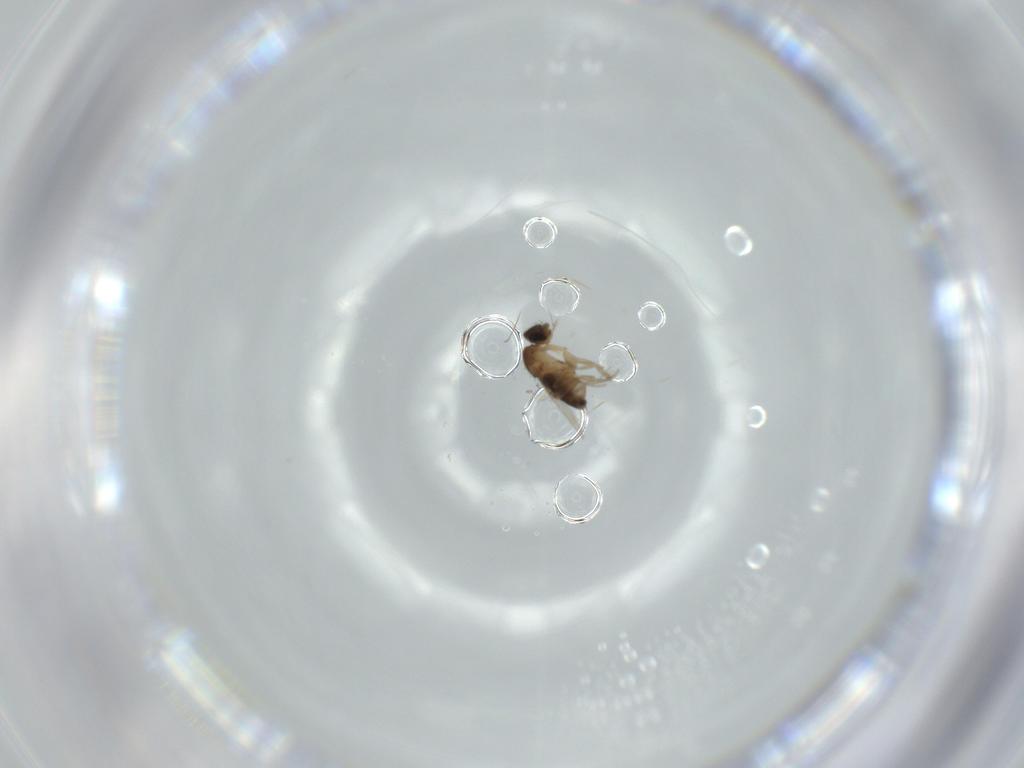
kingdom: Animalia
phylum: Arthropoda
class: Insecta
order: Diptera
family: Phoridae
